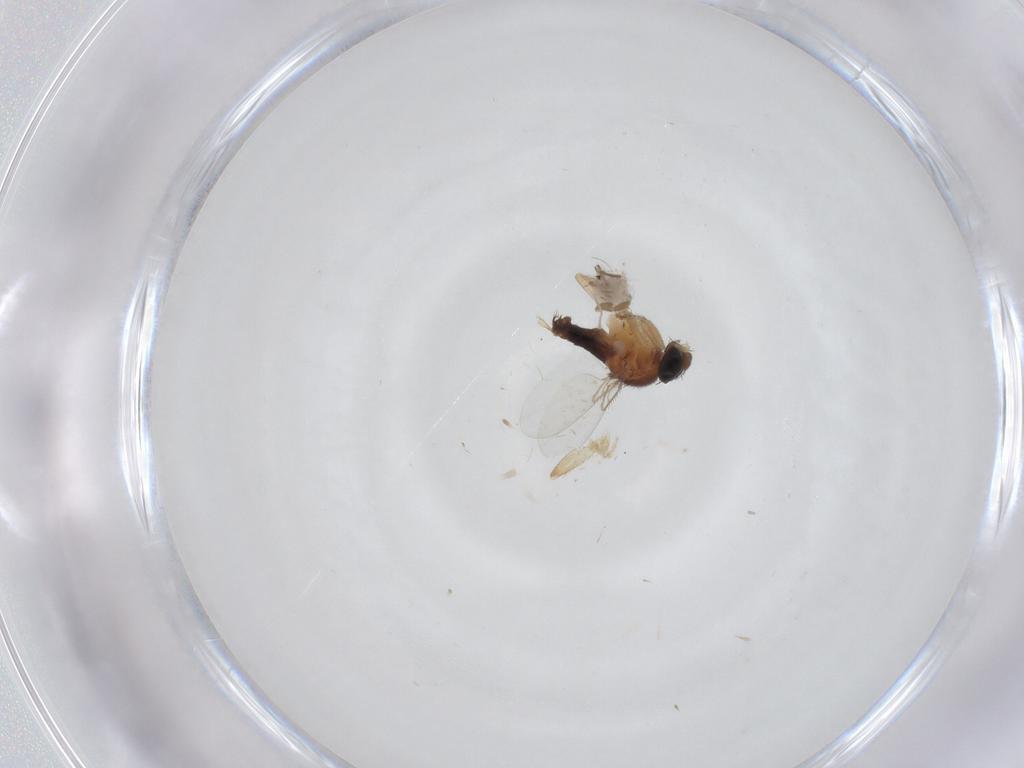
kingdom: Animalia
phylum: Arthropoda
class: Insecta
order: Diptera
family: Cecidomyiidae
